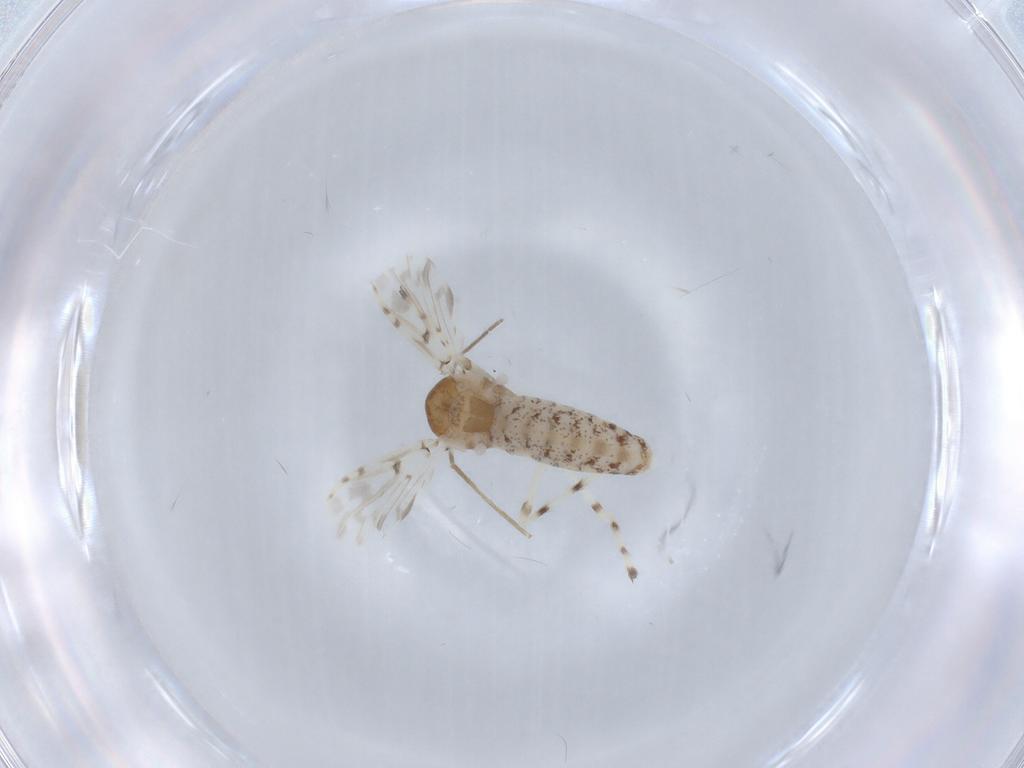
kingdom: Animalia
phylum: Arthropoda
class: Insecta
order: Diptera
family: Chironomidae
